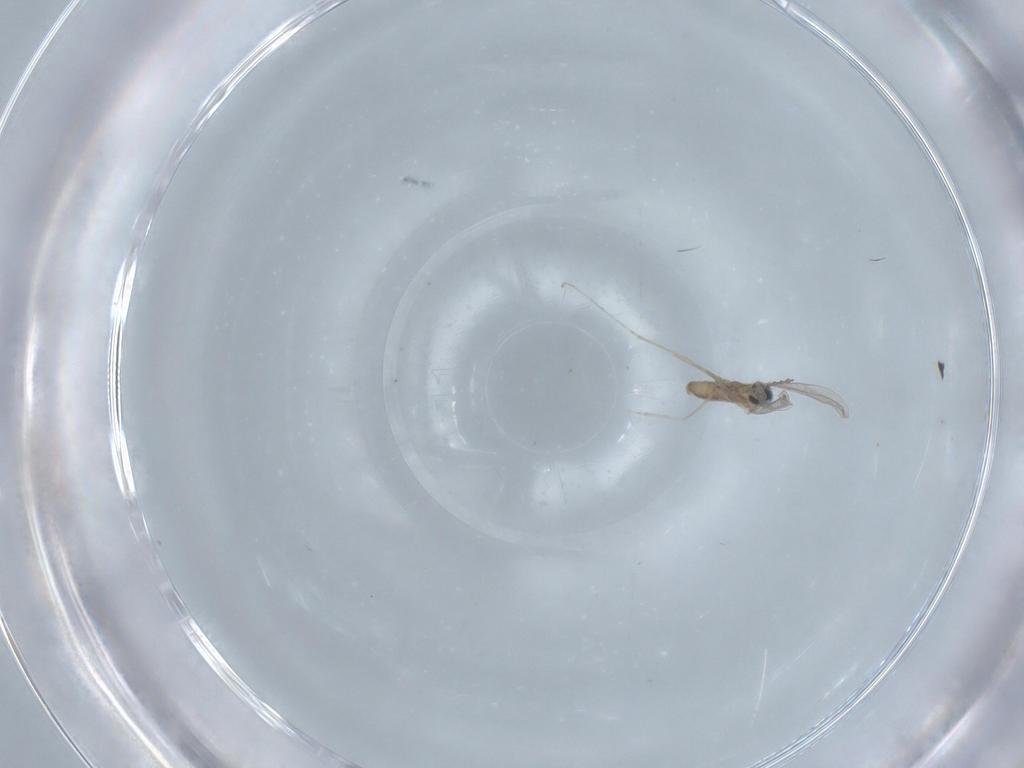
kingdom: Animalia
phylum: Arthropoda
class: Insecta
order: Diptera
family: Cecidomyiidae
